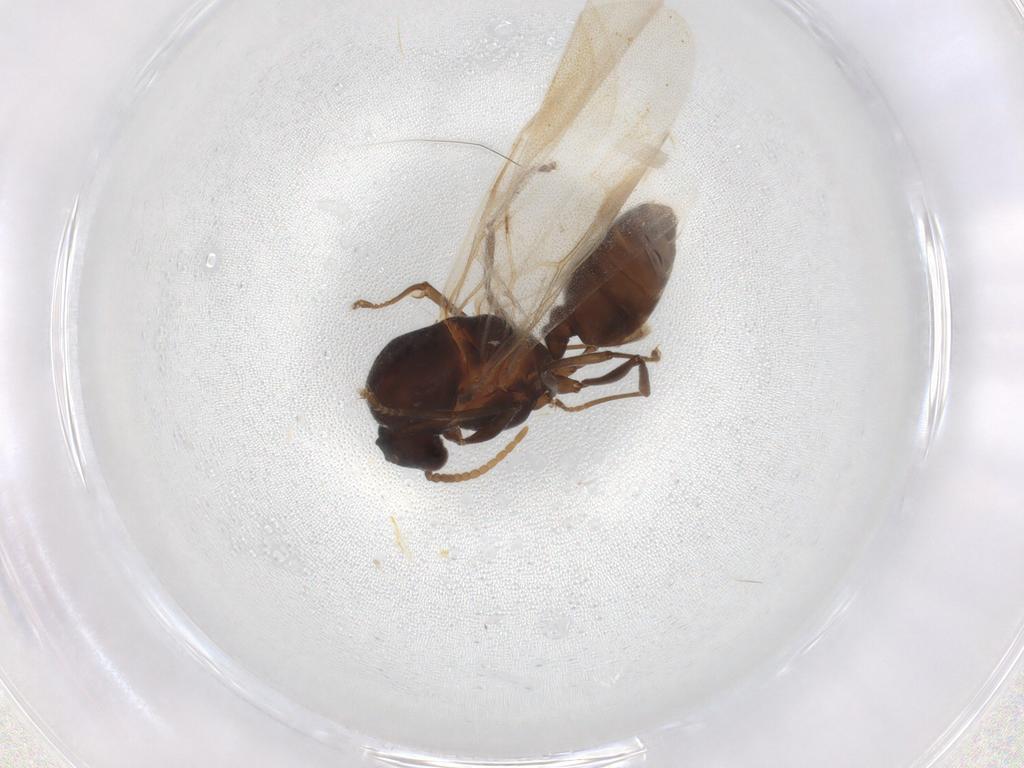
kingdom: Animalia
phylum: Arthropoda
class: Insecta
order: Hymenoptera
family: Formicidae
